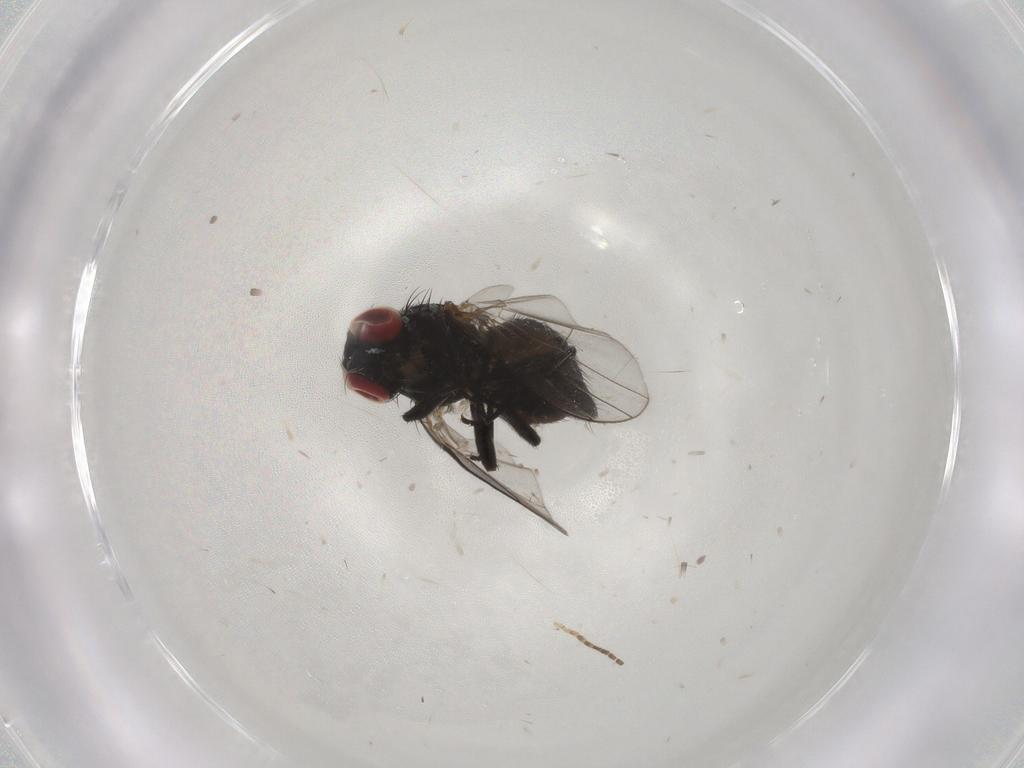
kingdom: Animalia
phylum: Arthropoda
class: Insecta
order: Diptera
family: Agromyzidae
